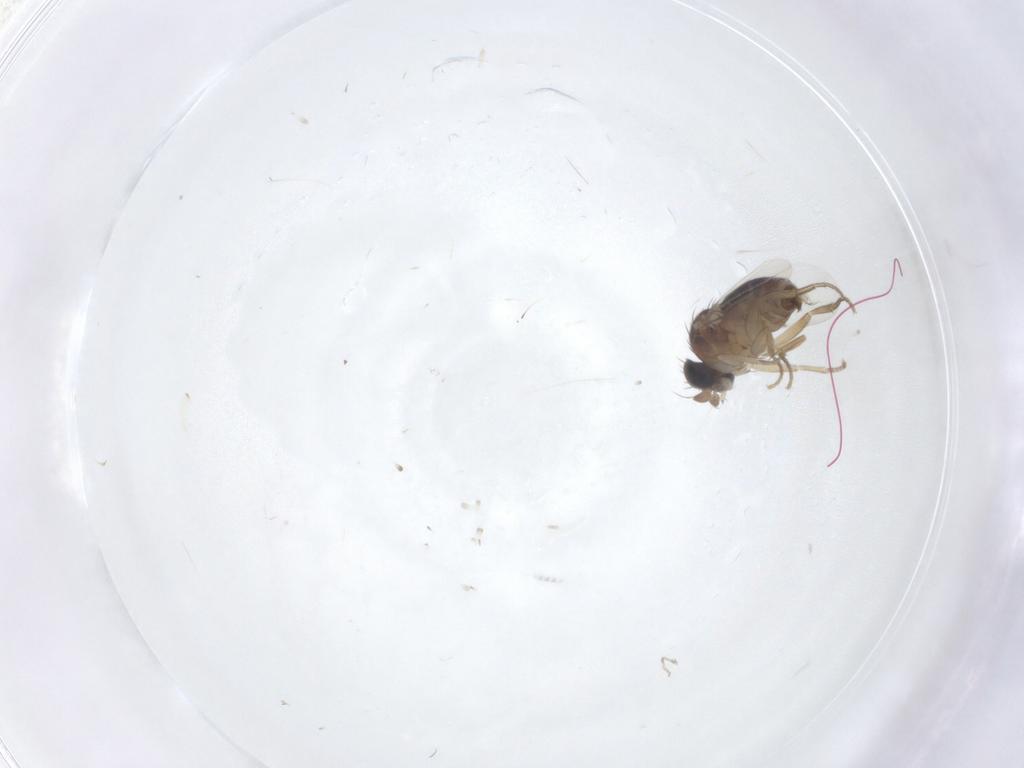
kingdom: Animalia
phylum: Arthropoda
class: Insecta
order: Diptera
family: Phoridae
